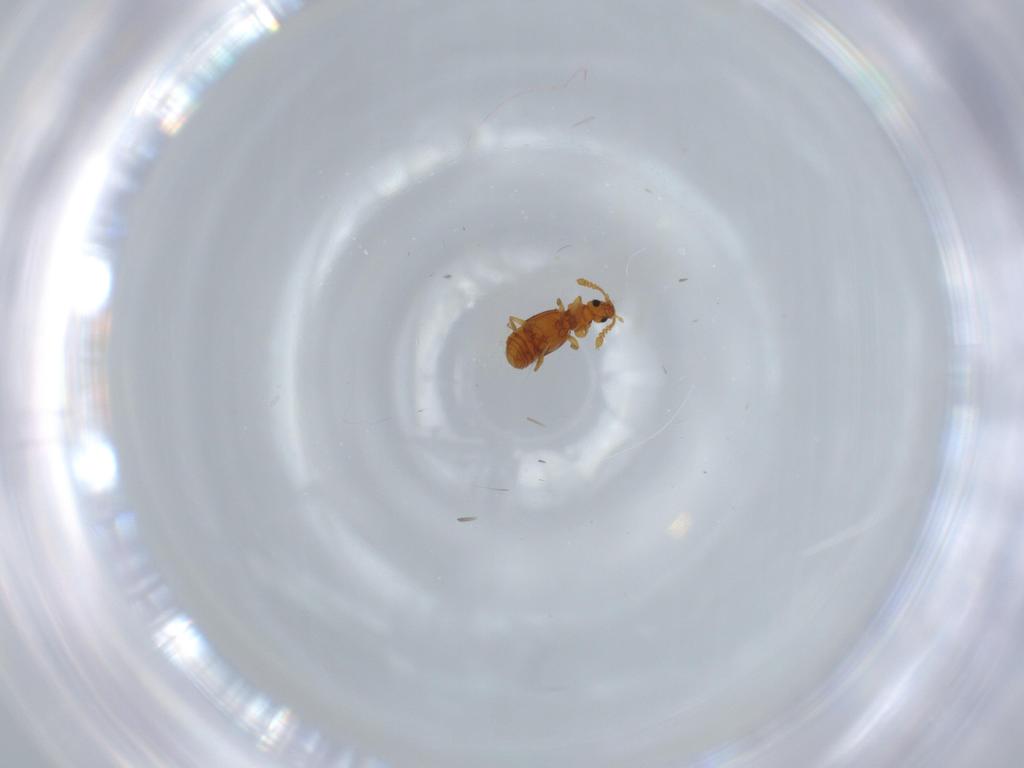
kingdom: Animalia
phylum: Arthropoda
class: Insecta
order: Coleoptera
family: Staphylinidae
